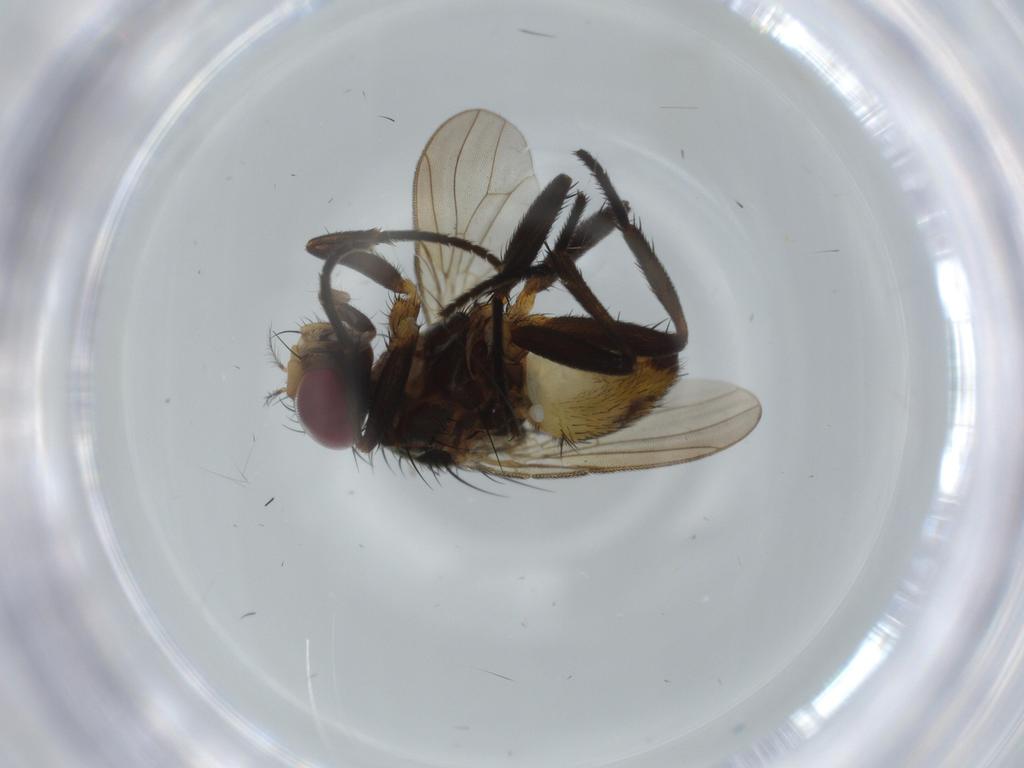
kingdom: Animalia
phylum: Arthropoda
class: Insecta
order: Diptera
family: Anthomyiidae
